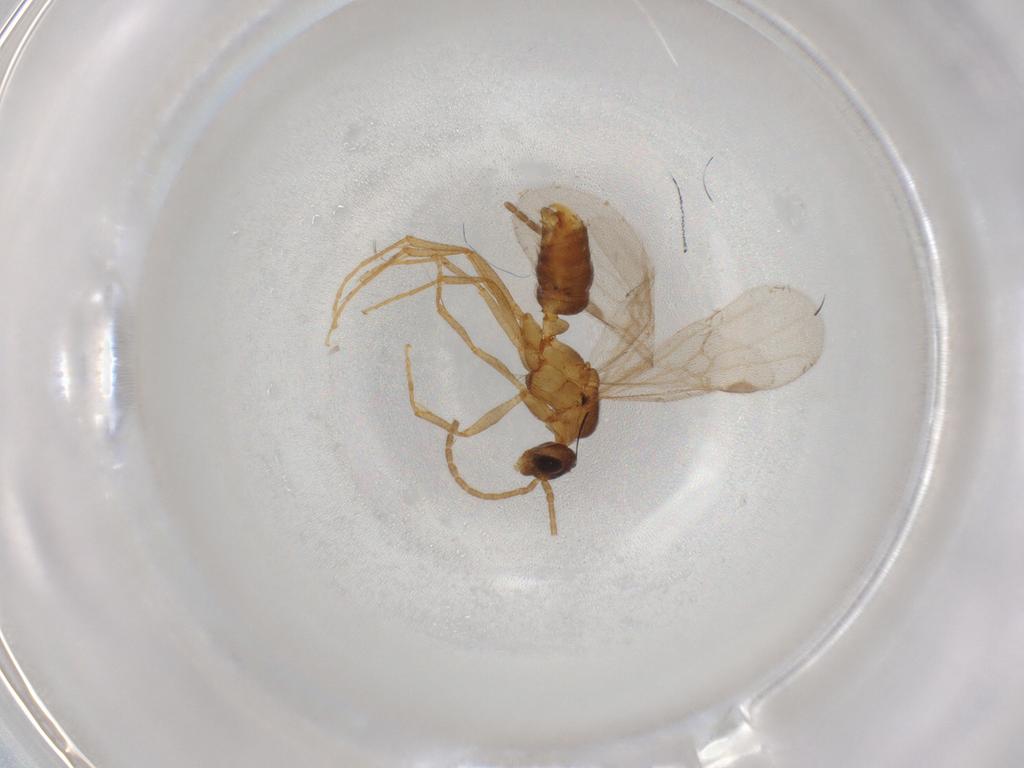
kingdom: Animalia
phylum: Arthropoda
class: Insecta
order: Hymenoptera
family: Formicidae
